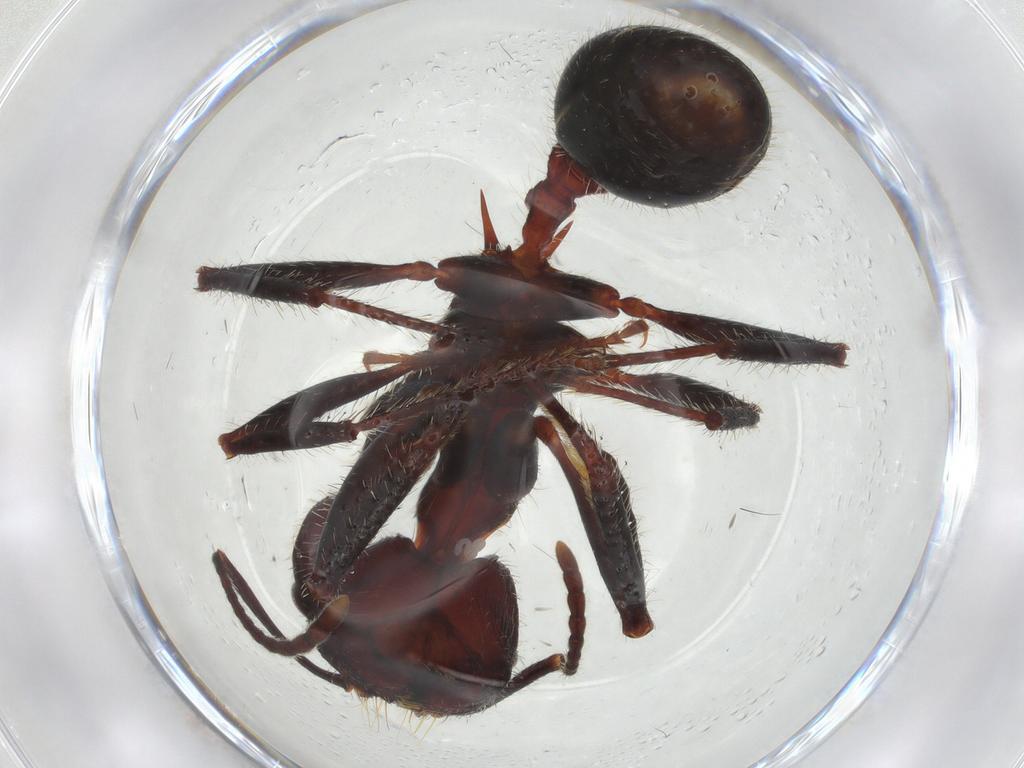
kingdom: Animalia
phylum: Arthropoda
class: Insecta
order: Hymenoptera
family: Formicidae
